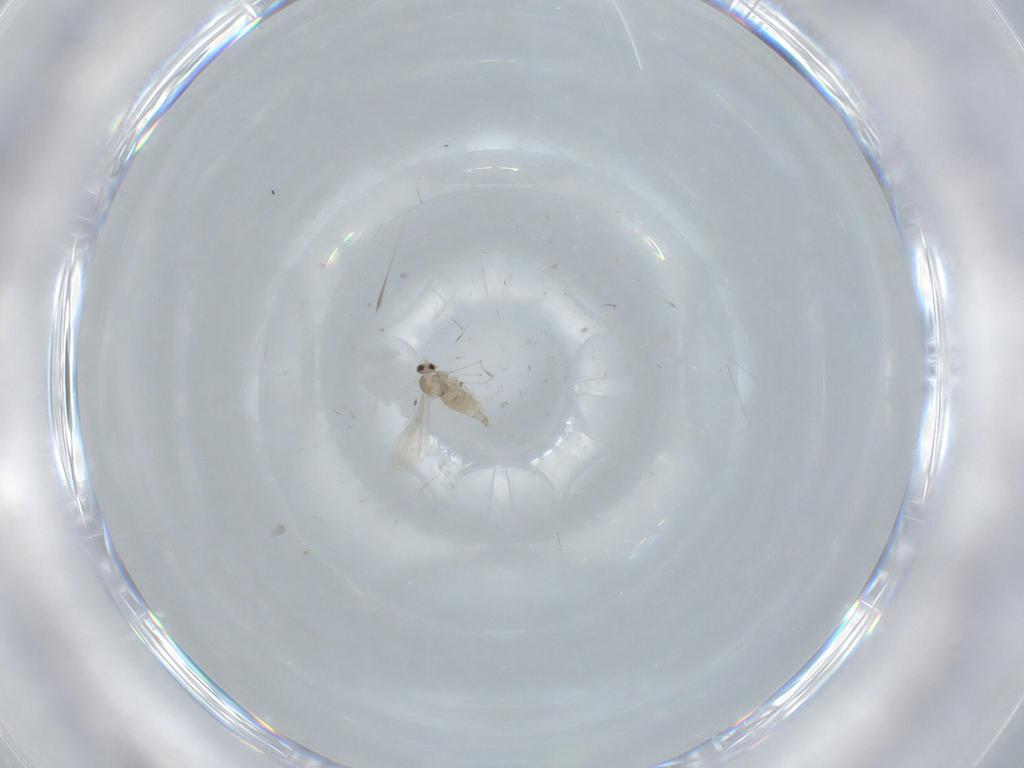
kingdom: Animalia
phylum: Arthropoda
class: Insecta
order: Diptera
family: Cecidomyiidae
